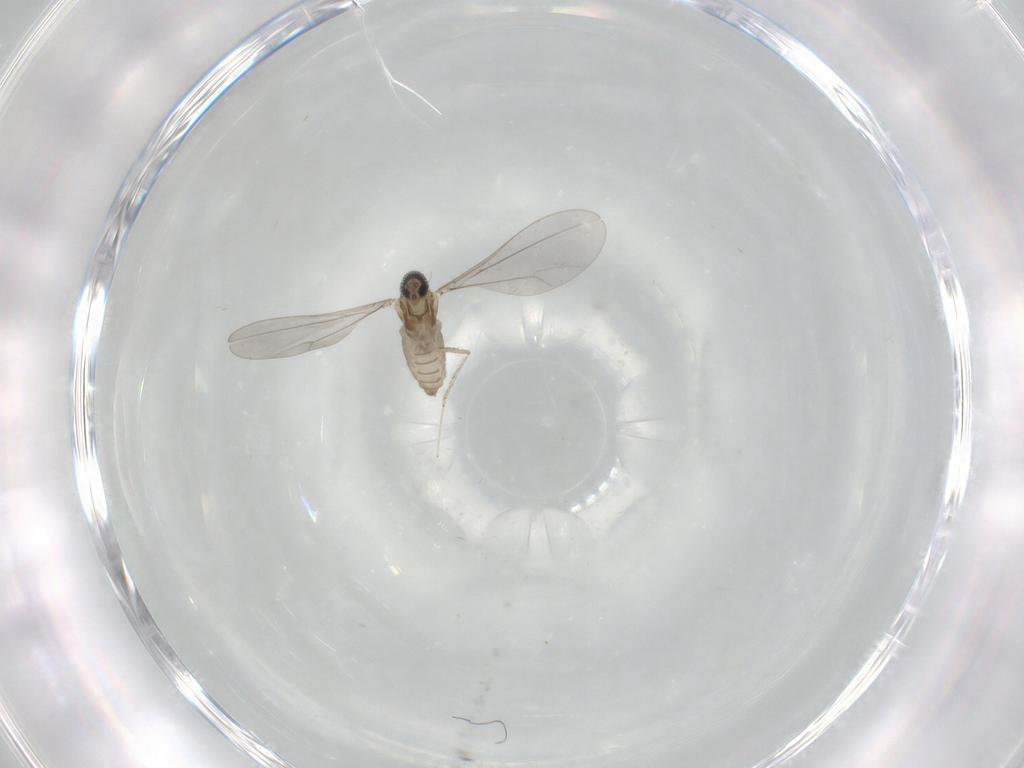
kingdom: Animalia
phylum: Arthropoda
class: Insecta
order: Diptera
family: Cecidomyiidae
